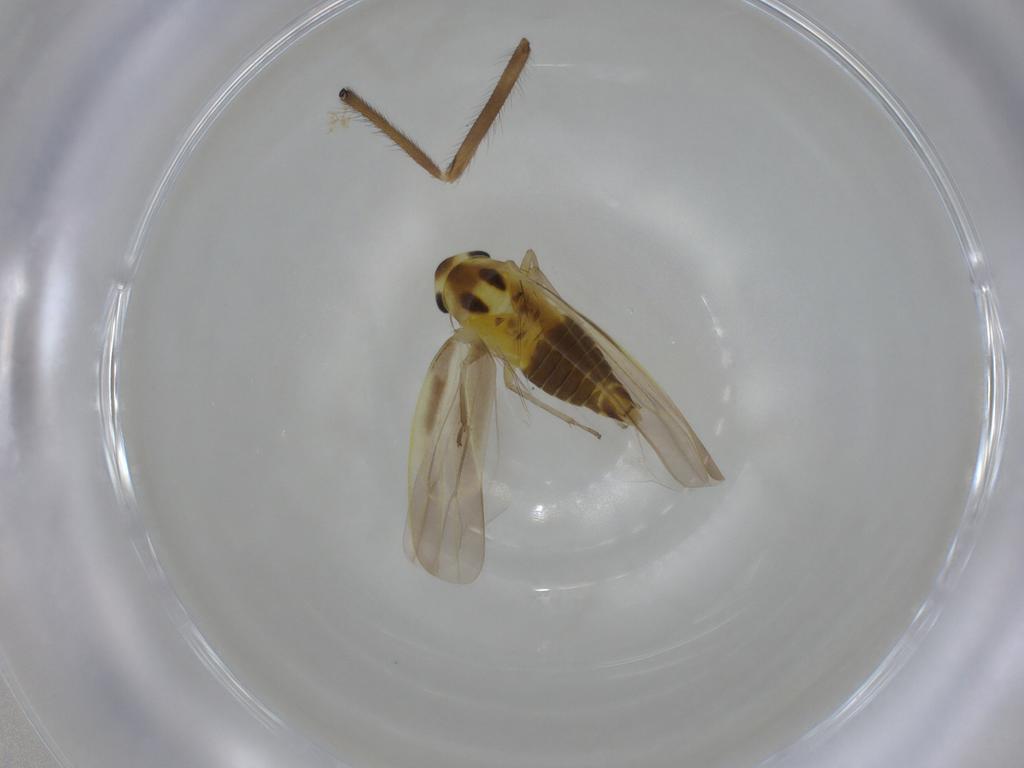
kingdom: Animalia
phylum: Arthropoda
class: Insecta
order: Hemiptera
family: Cicadellidae
